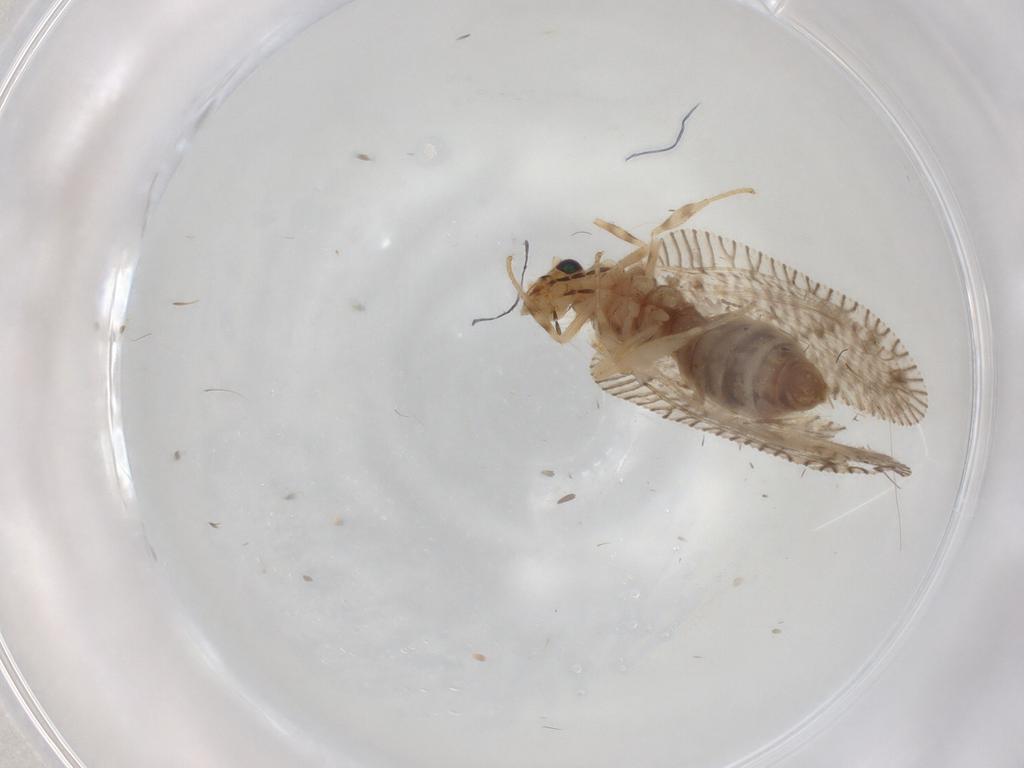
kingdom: Animalia
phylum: Arthropoda
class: Insecta
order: Neuroptera
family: Hemerobiidae
